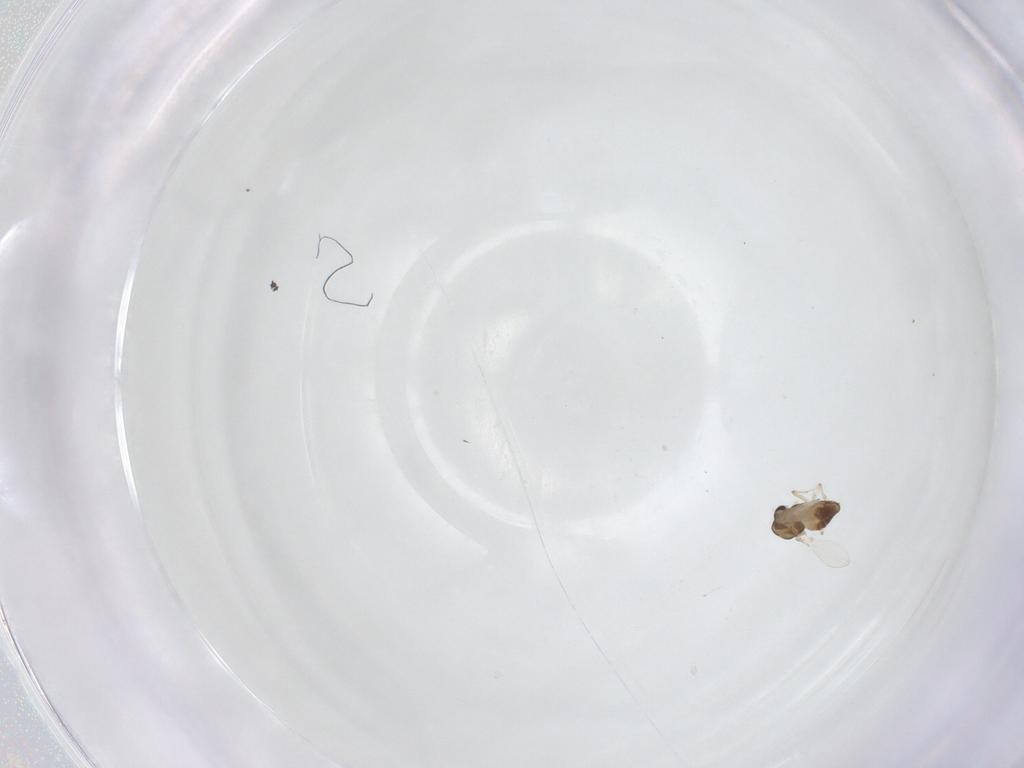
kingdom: Animalia
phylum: Arthropoda
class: Insecta
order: Diptera
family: Chironomidae
